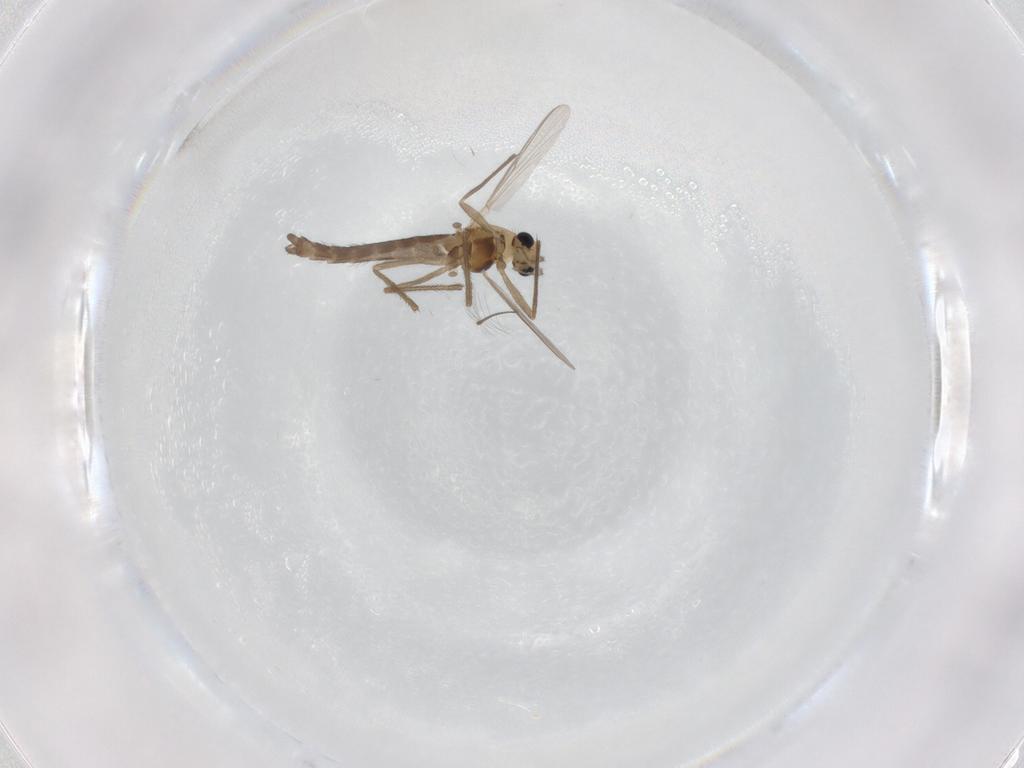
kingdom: Animalia
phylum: Arthropoda
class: Insecta
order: Diptera
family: Chironomidae
